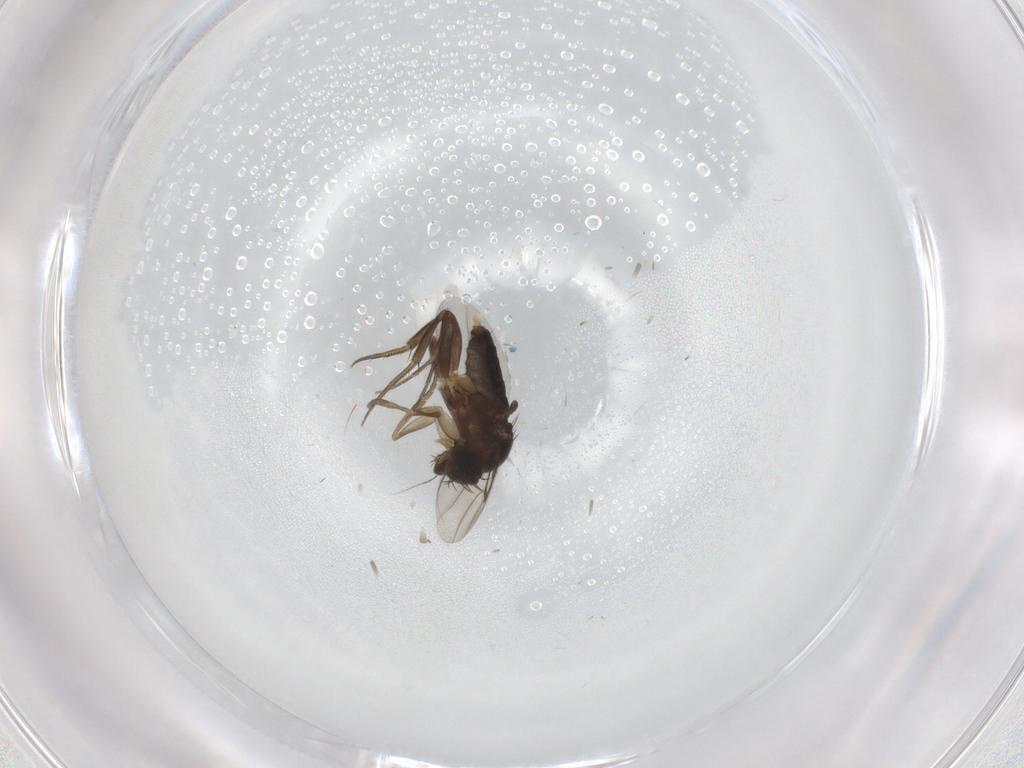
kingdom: Animalia
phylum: Arthropoda
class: Insecta
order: Diptera
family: Phoridae
